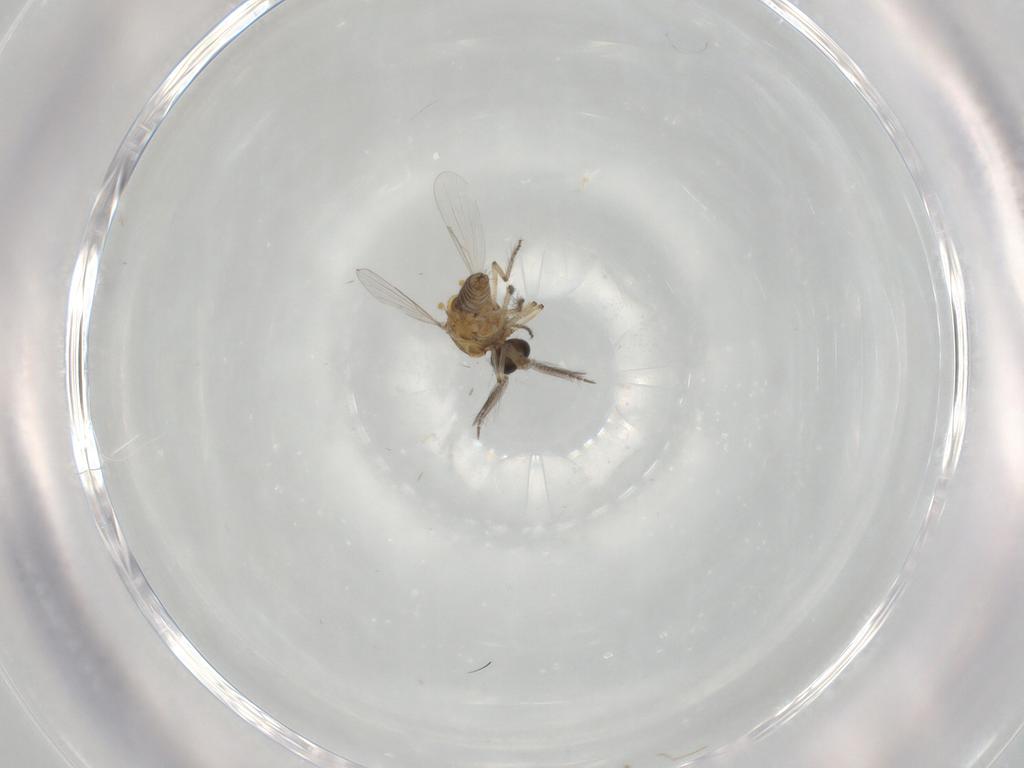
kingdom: Animalia
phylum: Arthropoda
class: Insecta
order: Diptera
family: Ceratopogonidae
